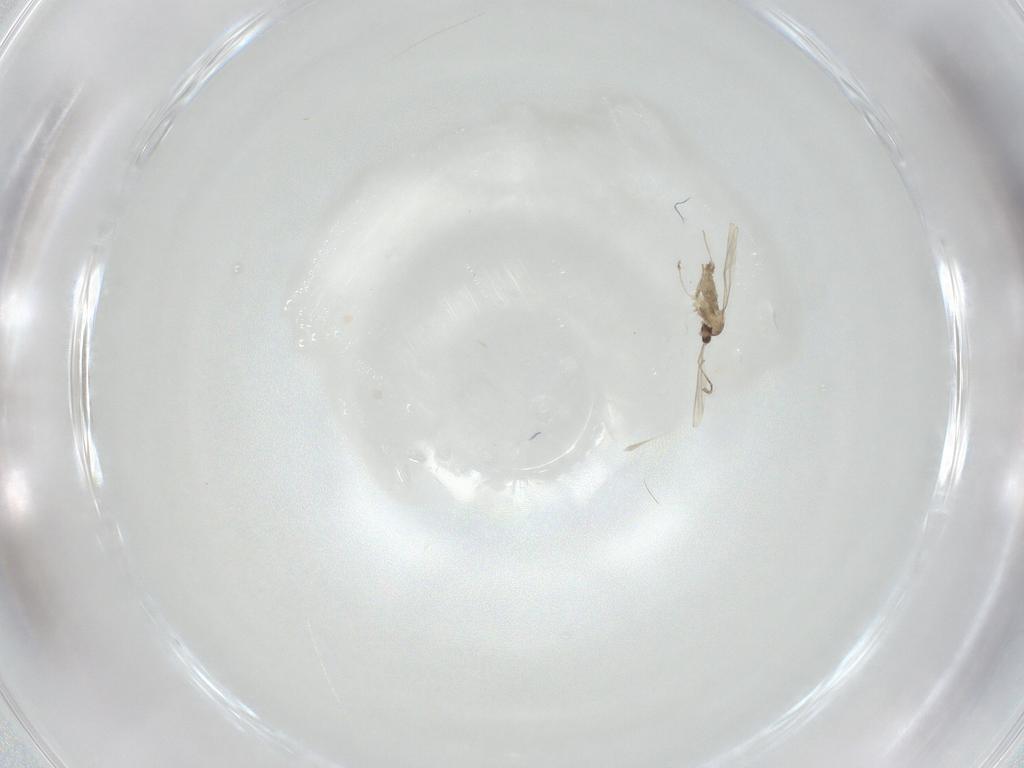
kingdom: Animalia
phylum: Arthropoda
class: Insecta
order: Diptera
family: Cecidomyiidae
